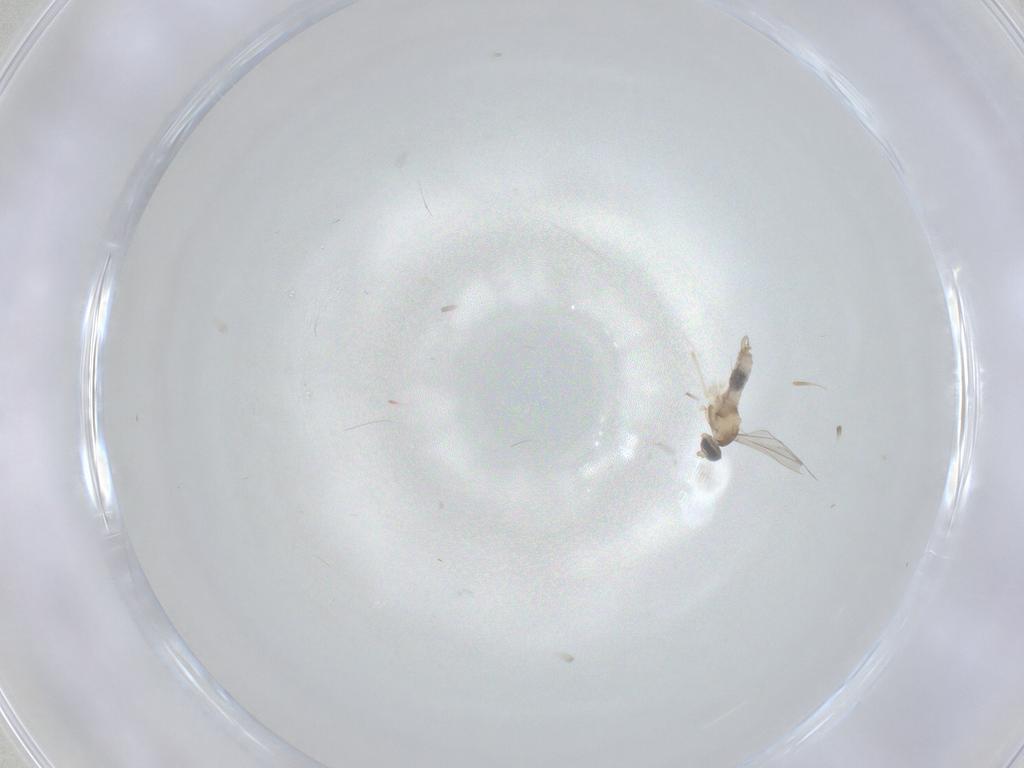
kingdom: Animalia
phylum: Arthropoda
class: Insecta
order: Diptera
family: Cecidomyiidae
